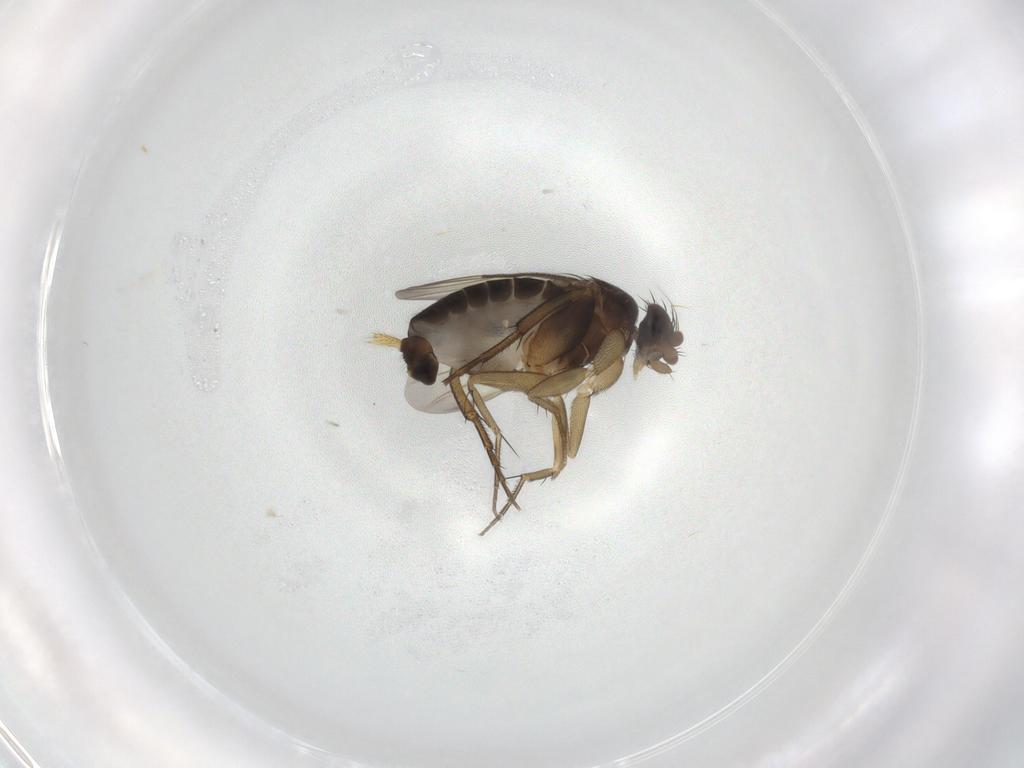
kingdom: Animalia
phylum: Arthropoda
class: Insecta
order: Diptera
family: Phoridae
